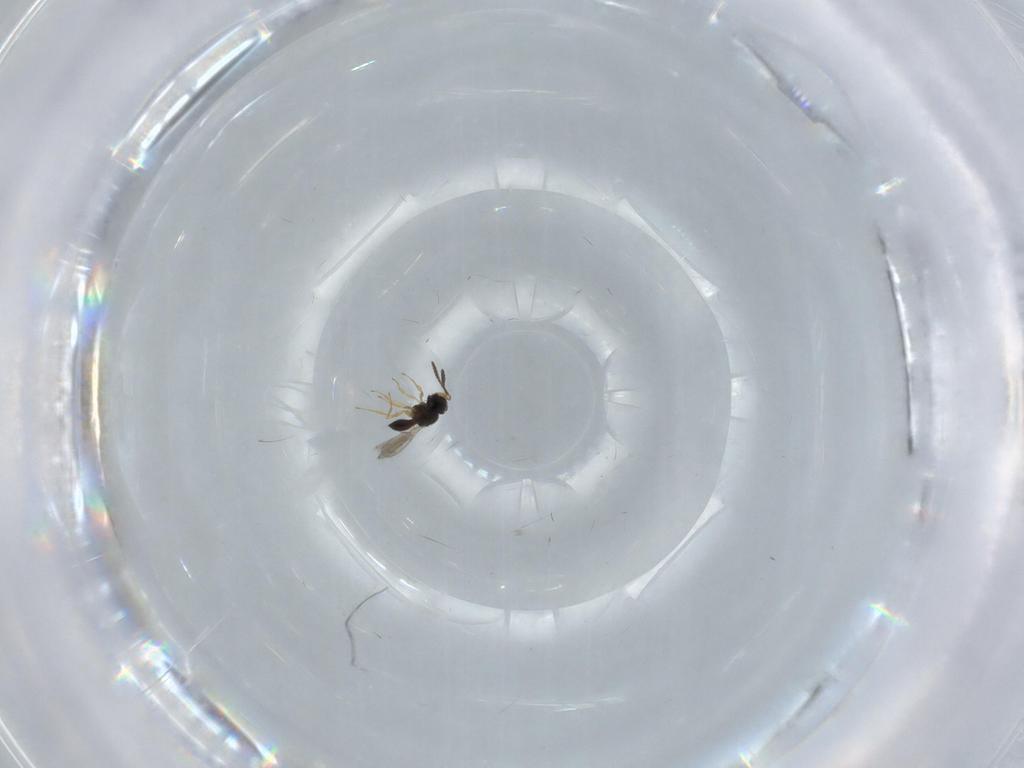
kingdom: Animalia
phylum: Arthropoda
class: Insecta
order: Hymenoptera
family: Scelionidae
